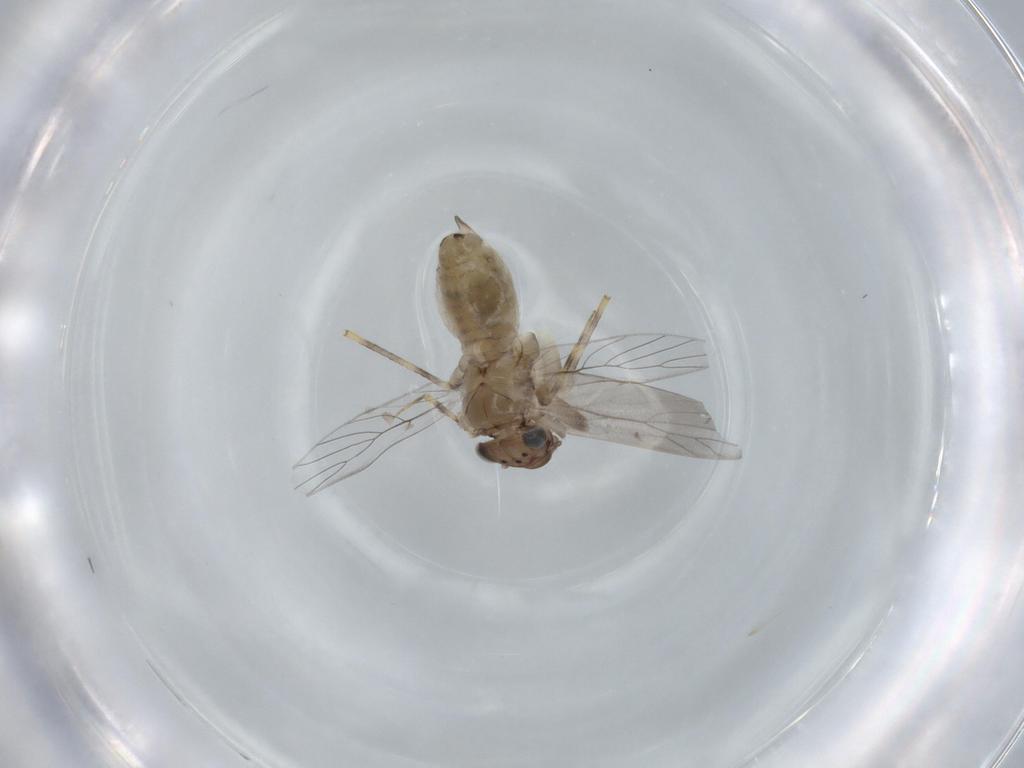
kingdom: Animalia
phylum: Arthropoda
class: Insecta
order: Psocodea
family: Lepidopsocidae
